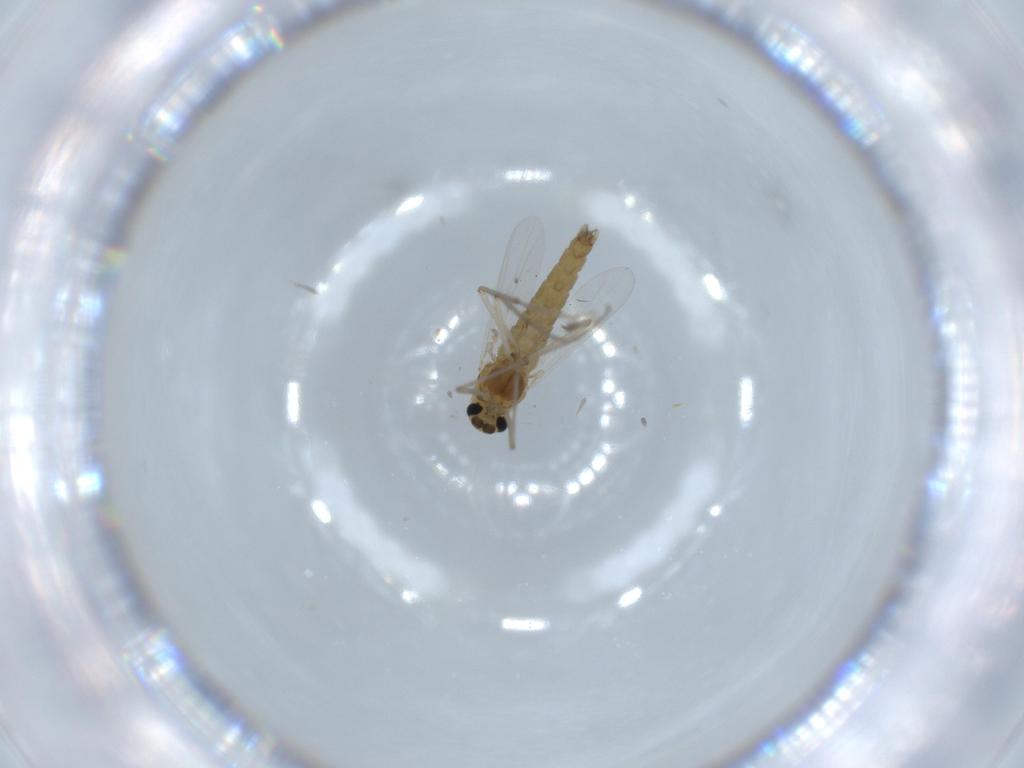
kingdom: Animalia
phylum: Arthropoda
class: Insecta
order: Diptera
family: Chironomidae
